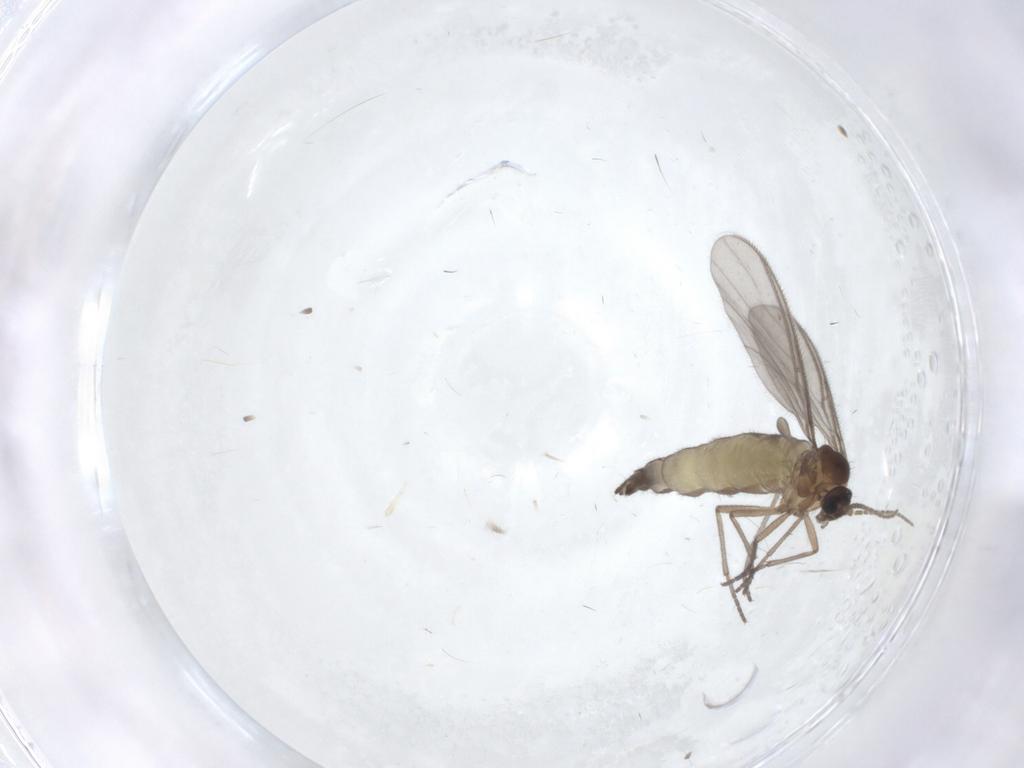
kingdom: Animalia
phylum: Arthropoda
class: Insecta
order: Diptera
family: Sciaridae
